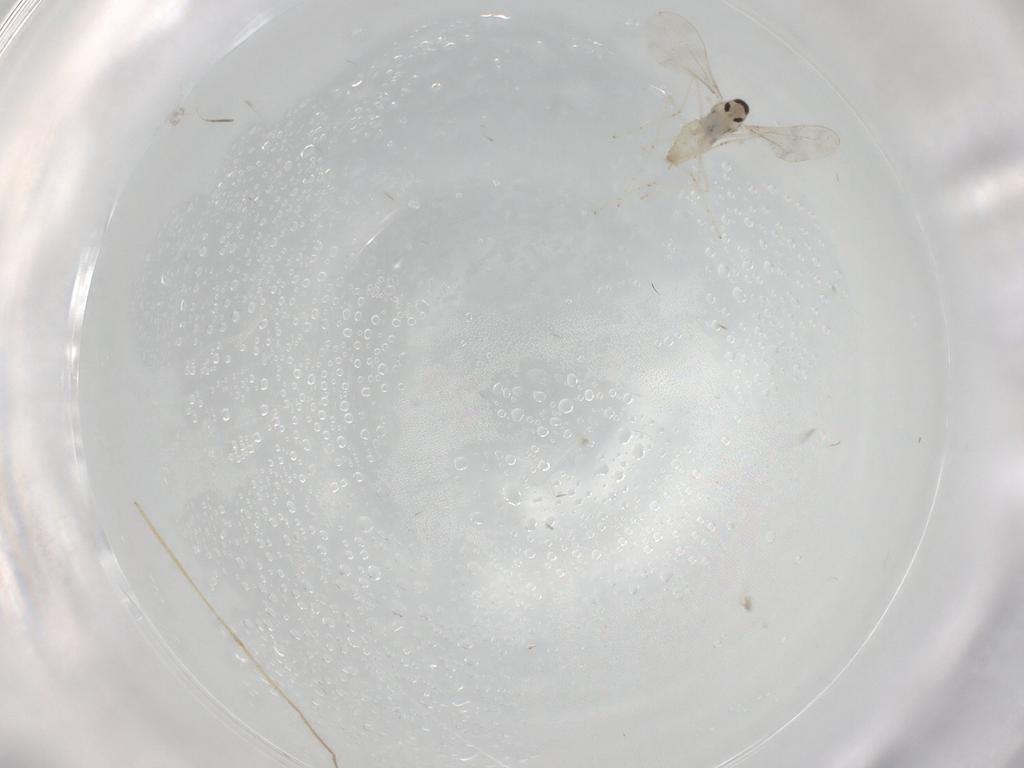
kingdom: Animalia
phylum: Arthropoda
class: Insecta
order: Diptera
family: Chironomidae
